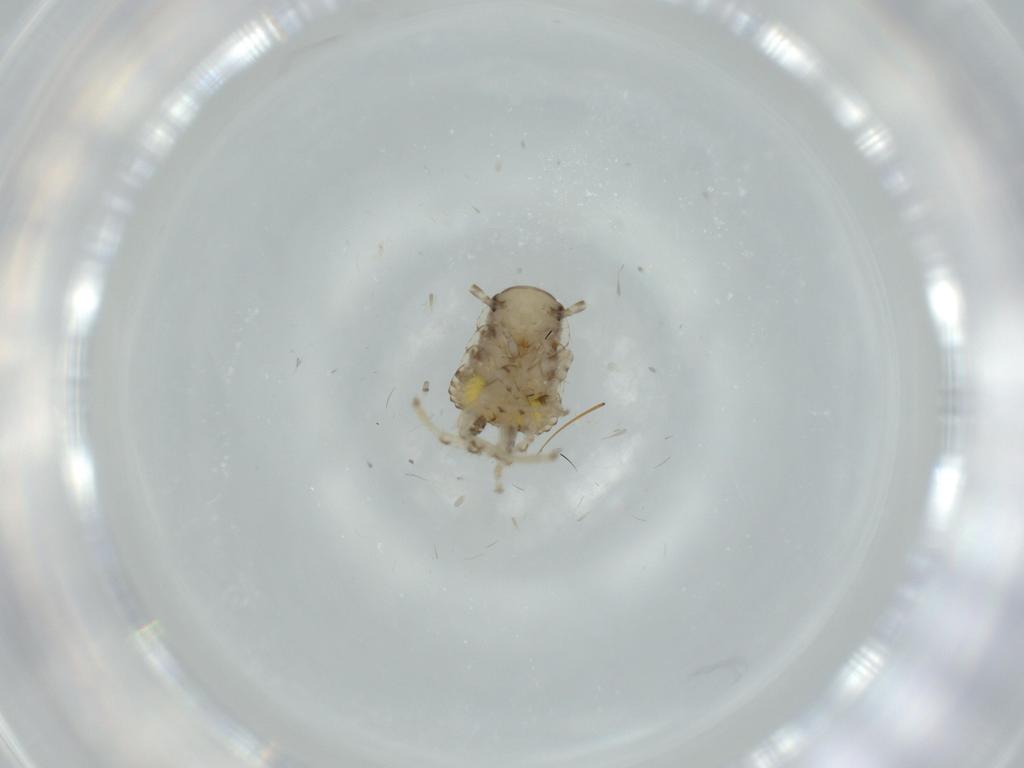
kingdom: Animalia
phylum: Arthropoda
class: Insecta
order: Blattodea
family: Ectobiidae
